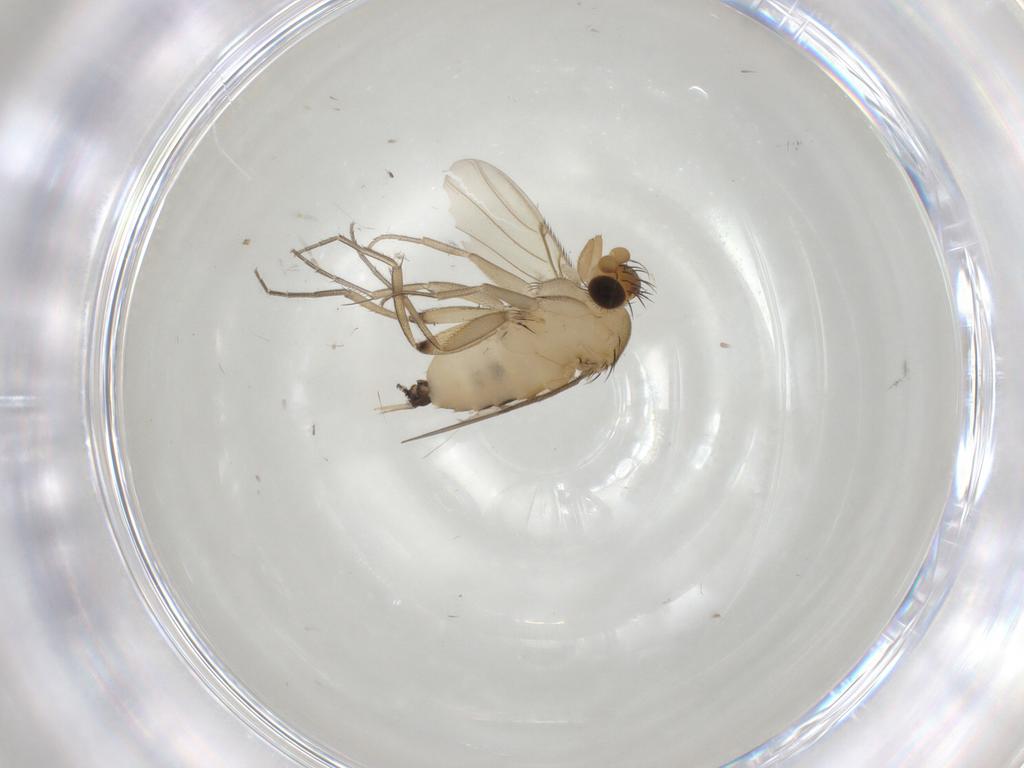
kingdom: Animalia
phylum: Arthropoda
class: Insecta
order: Diptera
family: Phoridae
